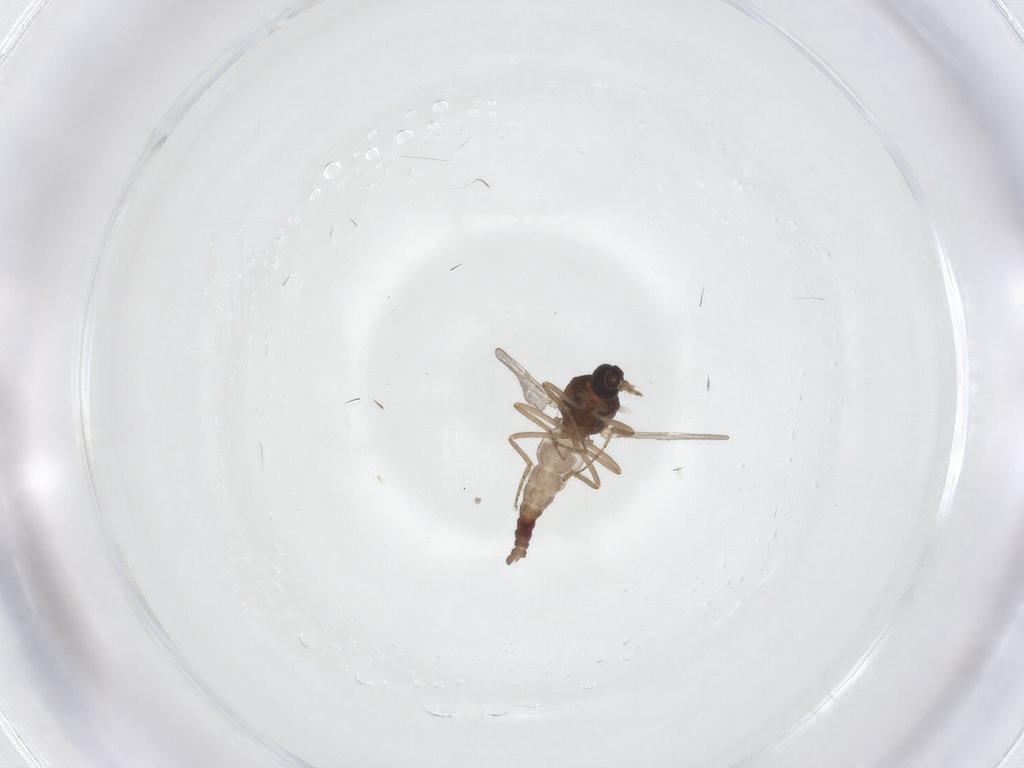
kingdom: Animalia
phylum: Arthropoda
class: Insecta
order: Diptera
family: Ceratopogonidae
